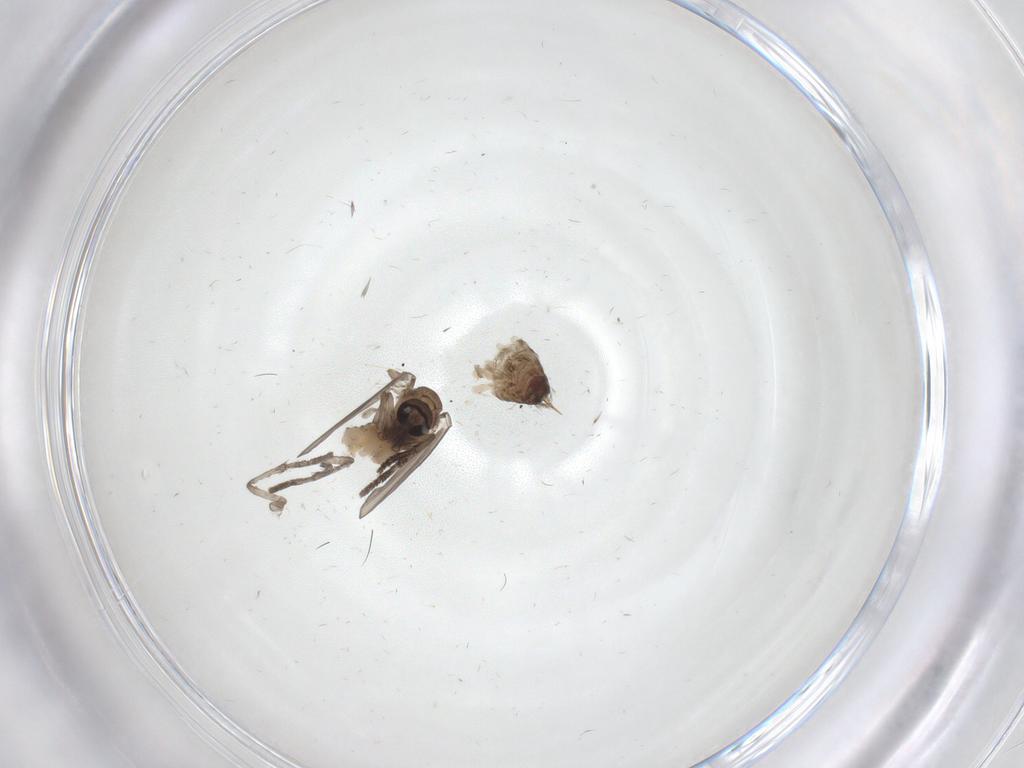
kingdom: Animalia
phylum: Arthropoda
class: Insecta
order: Diptera
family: Psychodidae
